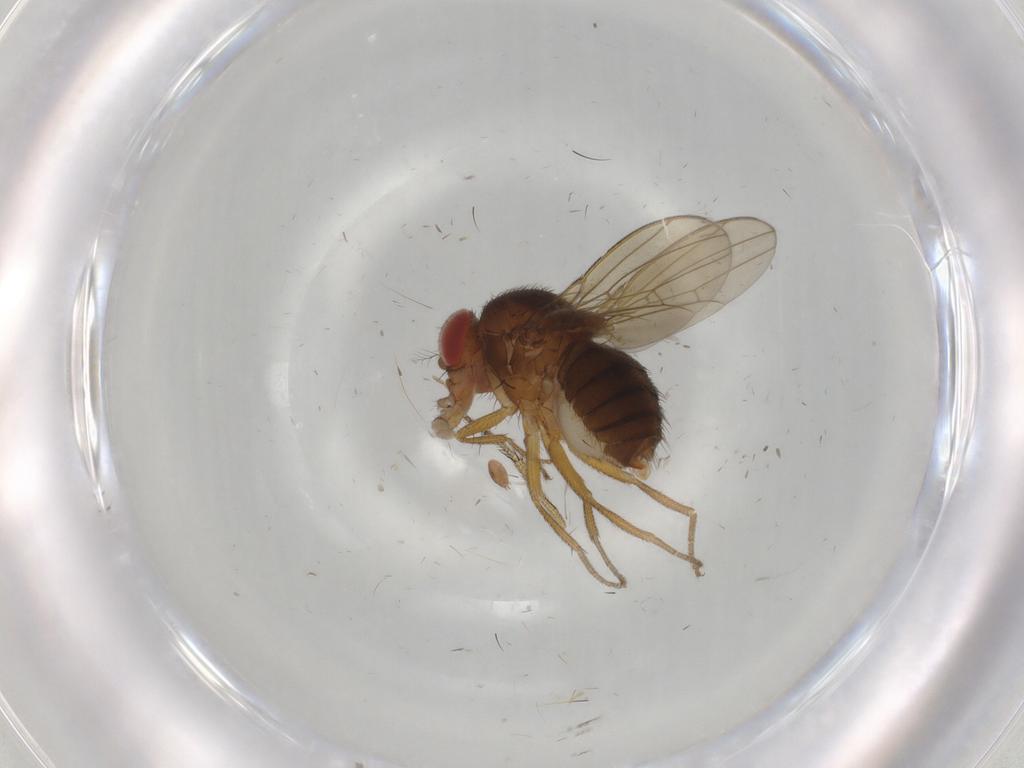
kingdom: Animalia
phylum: Arthropoda
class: Insecta
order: Diptera
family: Drosophilidae
